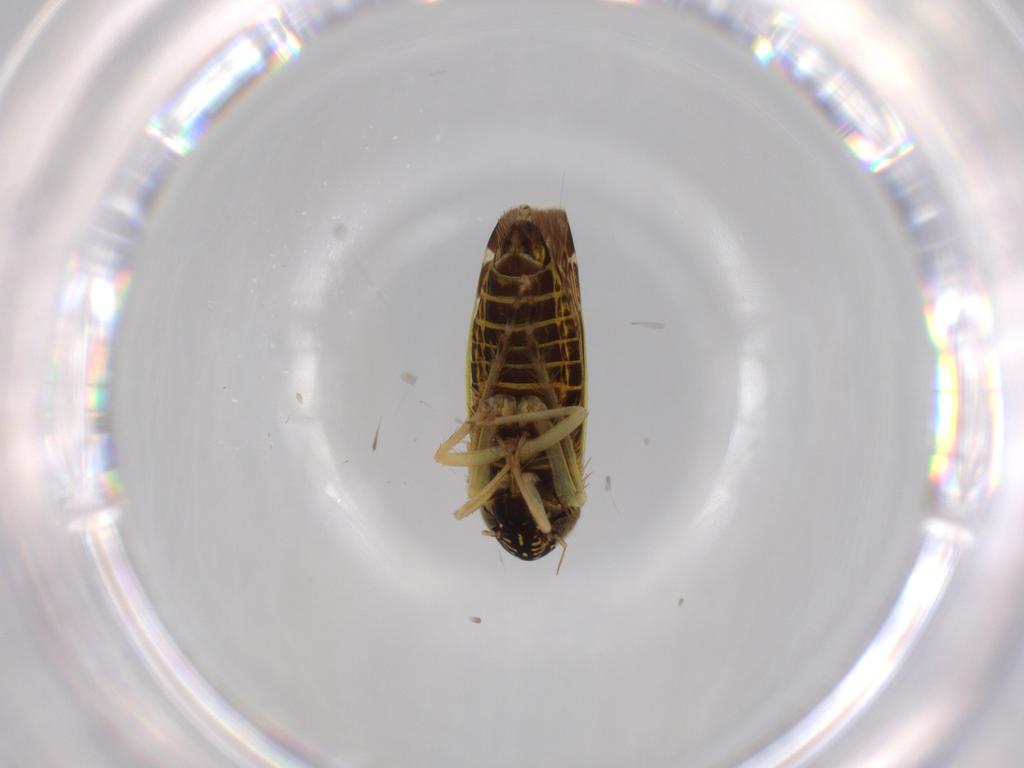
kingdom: Animalia
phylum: Arthropoda
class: Insecta
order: Hemiptera
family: Cicadellidae
